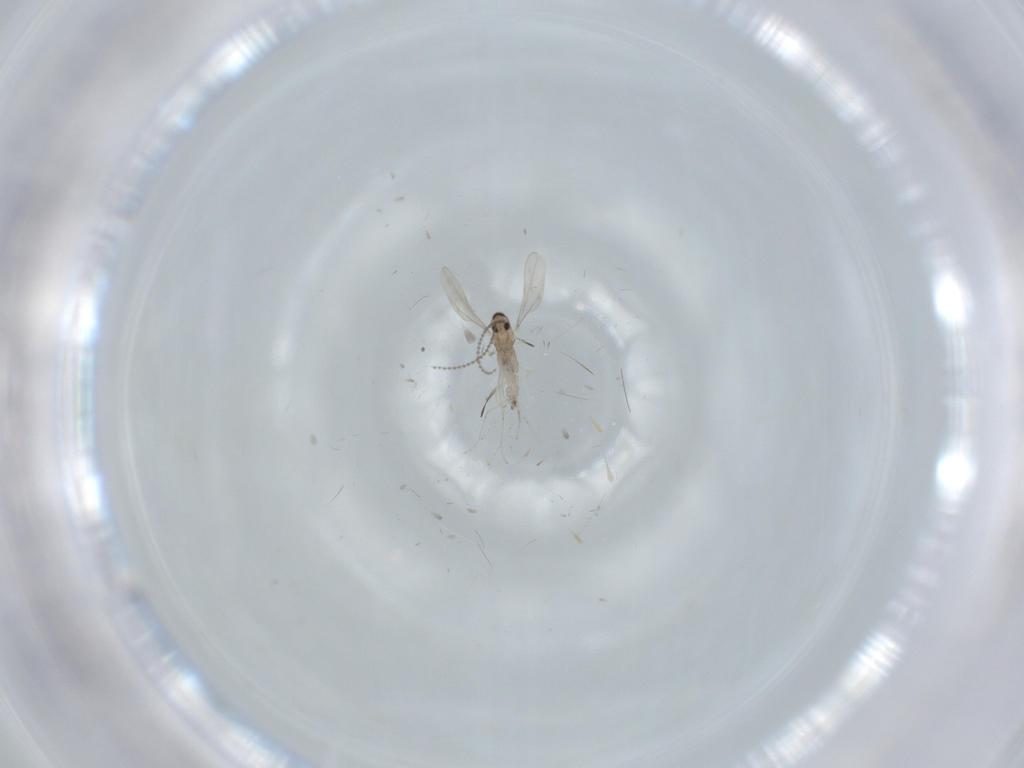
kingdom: Animalia
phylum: Arthropoda
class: Insecta
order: Diptera
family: Cecidomyiidae
